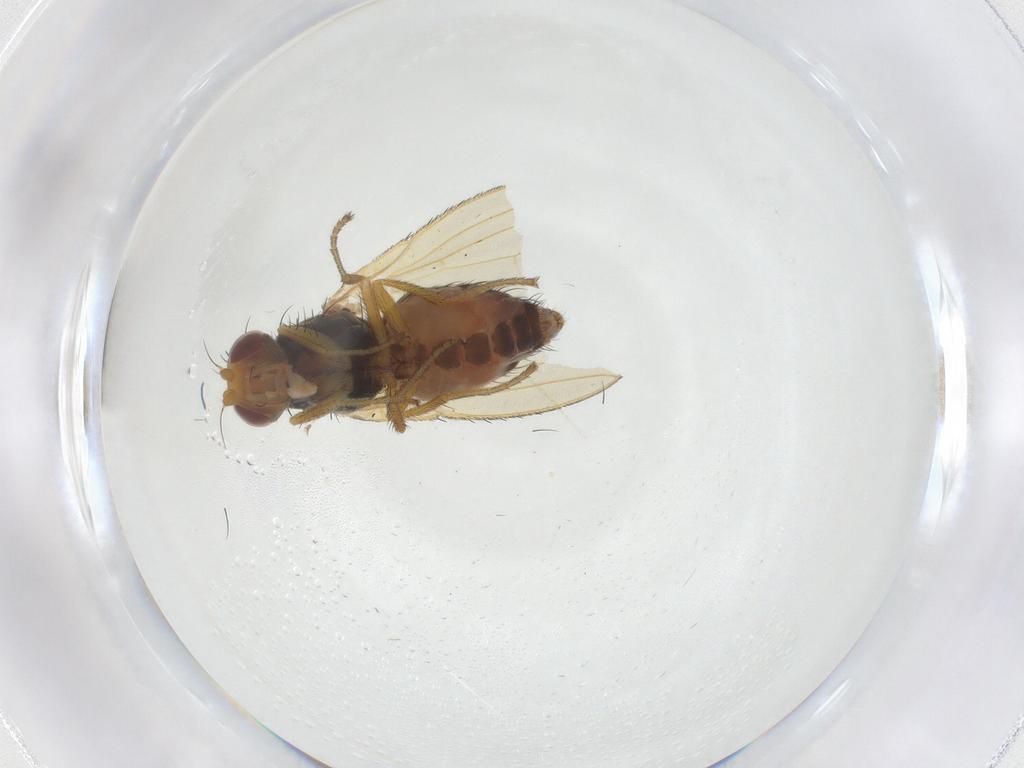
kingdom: Animalia
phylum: Arthropoda
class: Insecta
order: Diptera
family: Heleomyzidae
